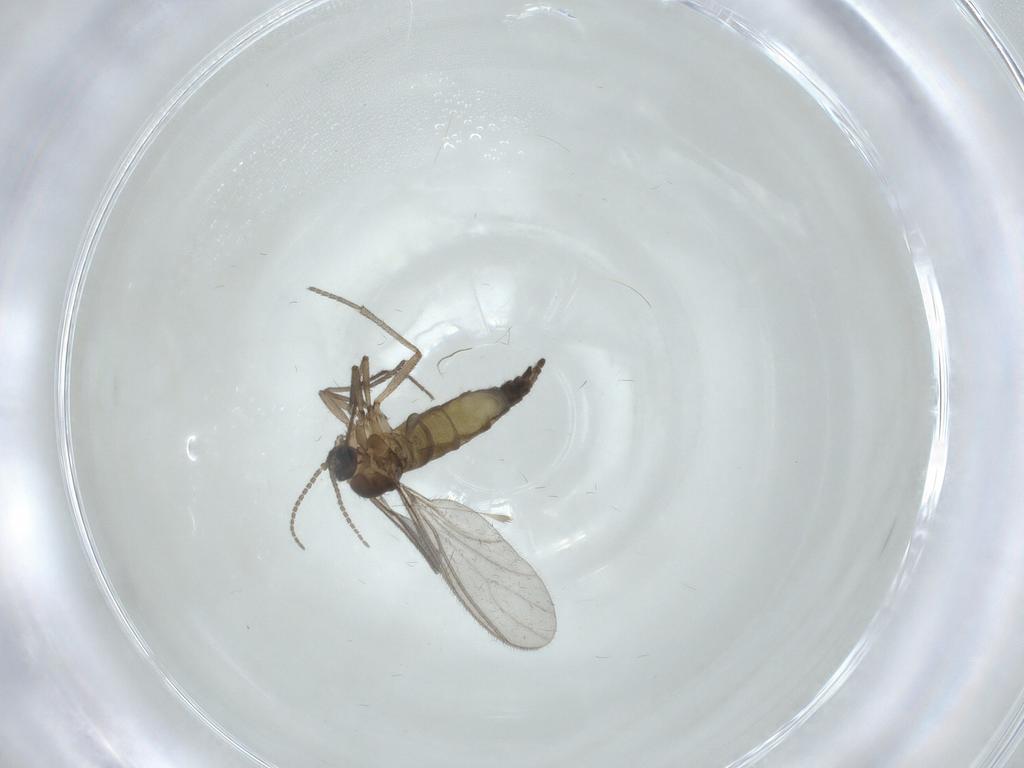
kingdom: Animalia
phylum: Arthropoda
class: Insecta
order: Diptera
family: Sciaridae
